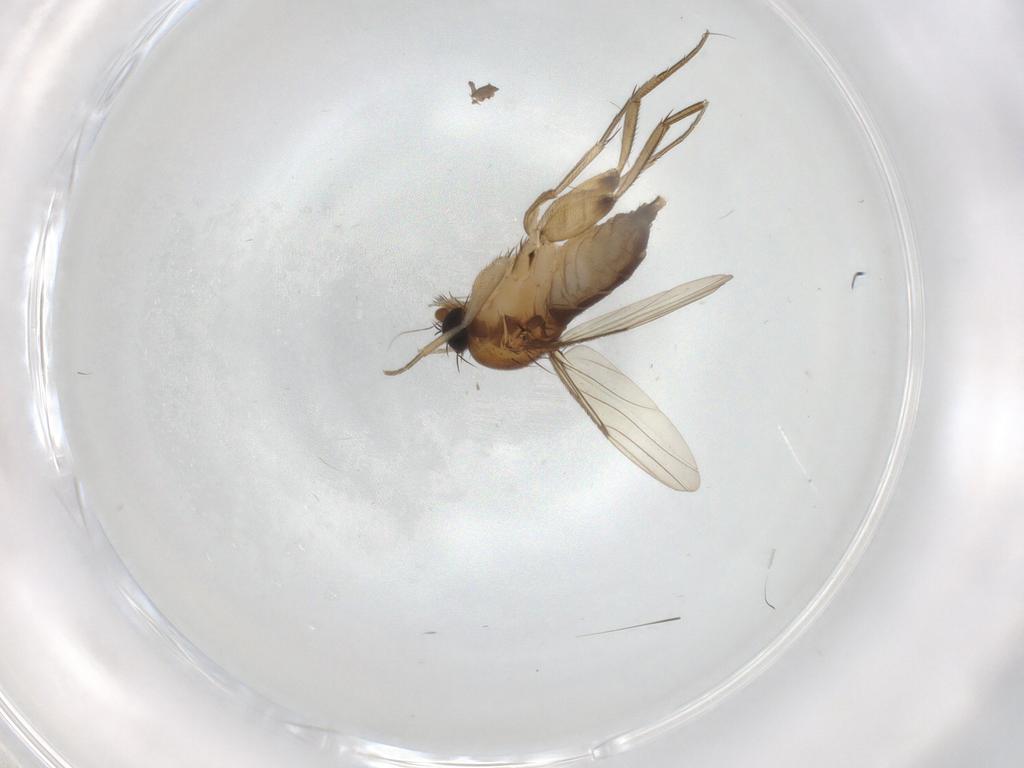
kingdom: Animalia
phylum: Arthropoda
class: Insecta
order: Diptera
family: Phoridae
